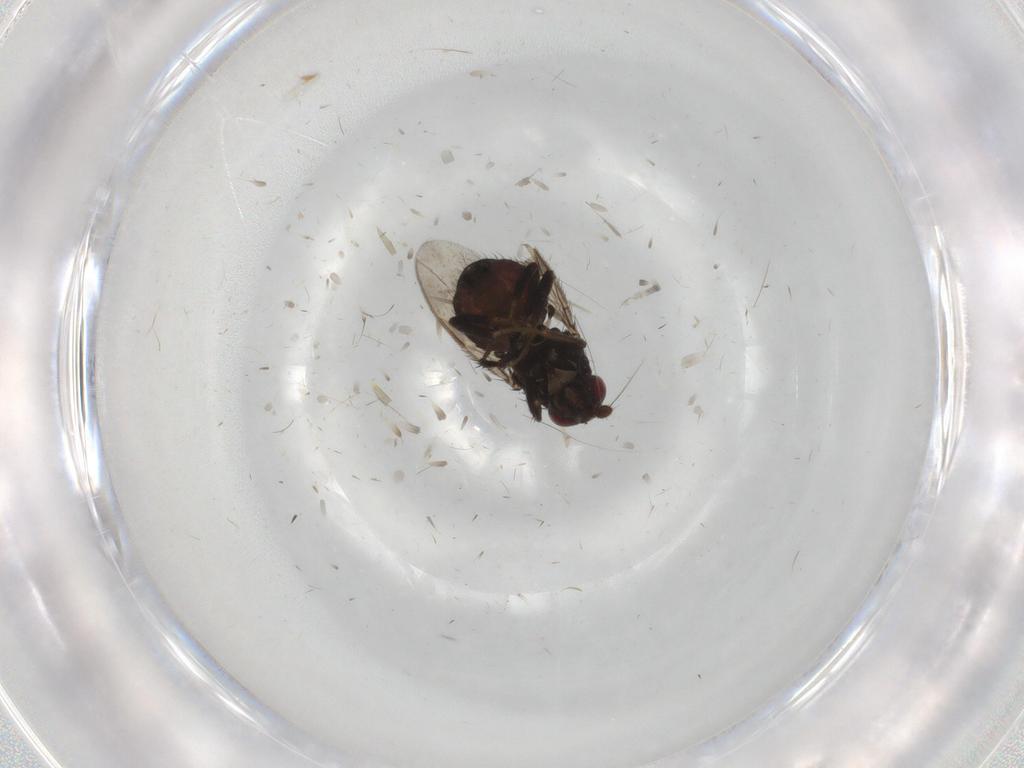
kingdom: Animalia
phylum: Arthropoda
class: Insecta
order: Diptera
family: Sphaeroceridae
